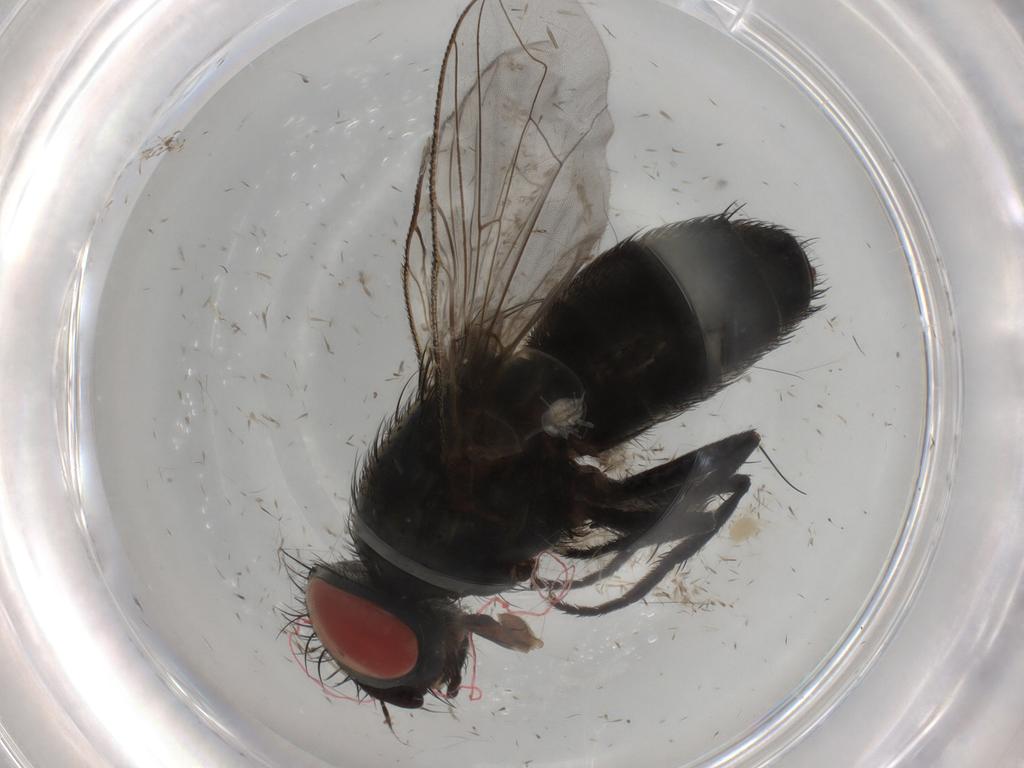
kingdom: Animalia
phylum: Arthropoda
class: Insecta
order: Diptera
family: Sarcophagidae
